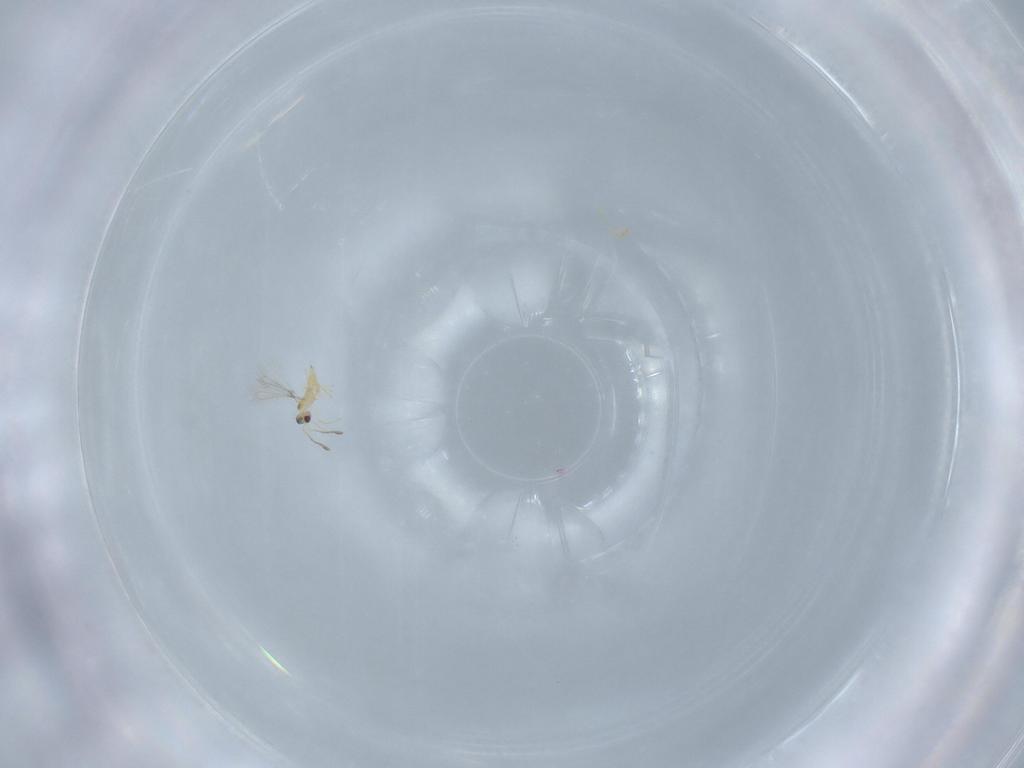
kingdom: Animalia
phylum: Arthropoda
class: Insecta
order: Hymenoptera
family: Mymaridae
